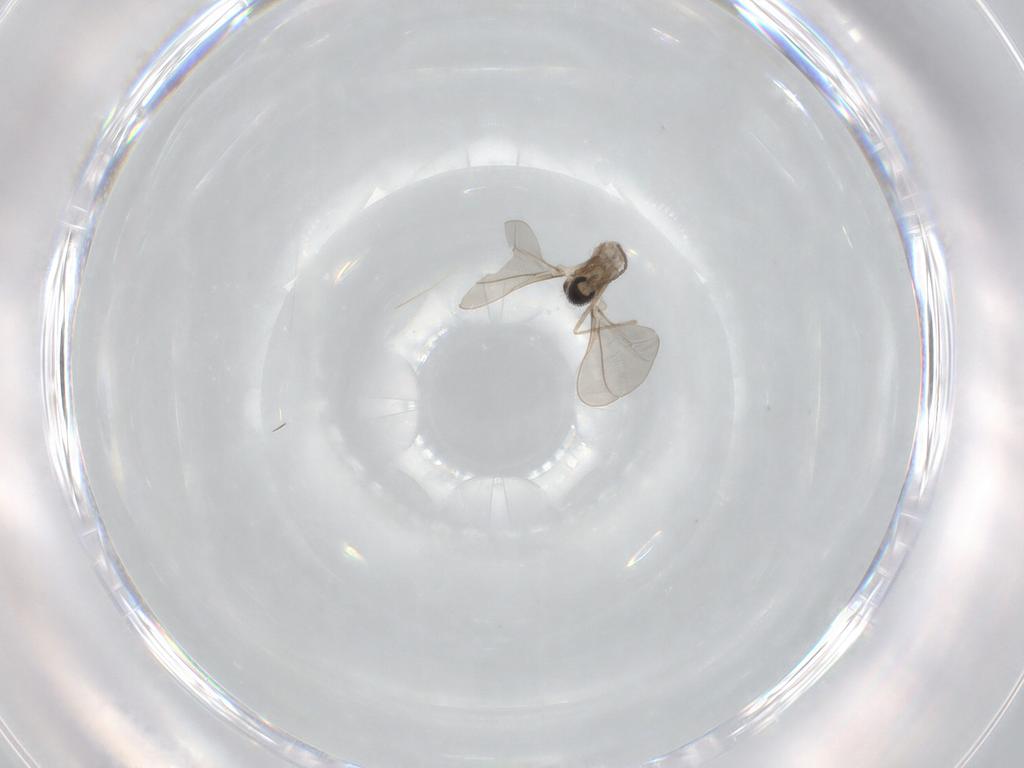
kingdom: Animalia
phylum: Arthropoda
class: Insecta
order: Diptera
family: Cecidomyiidae
